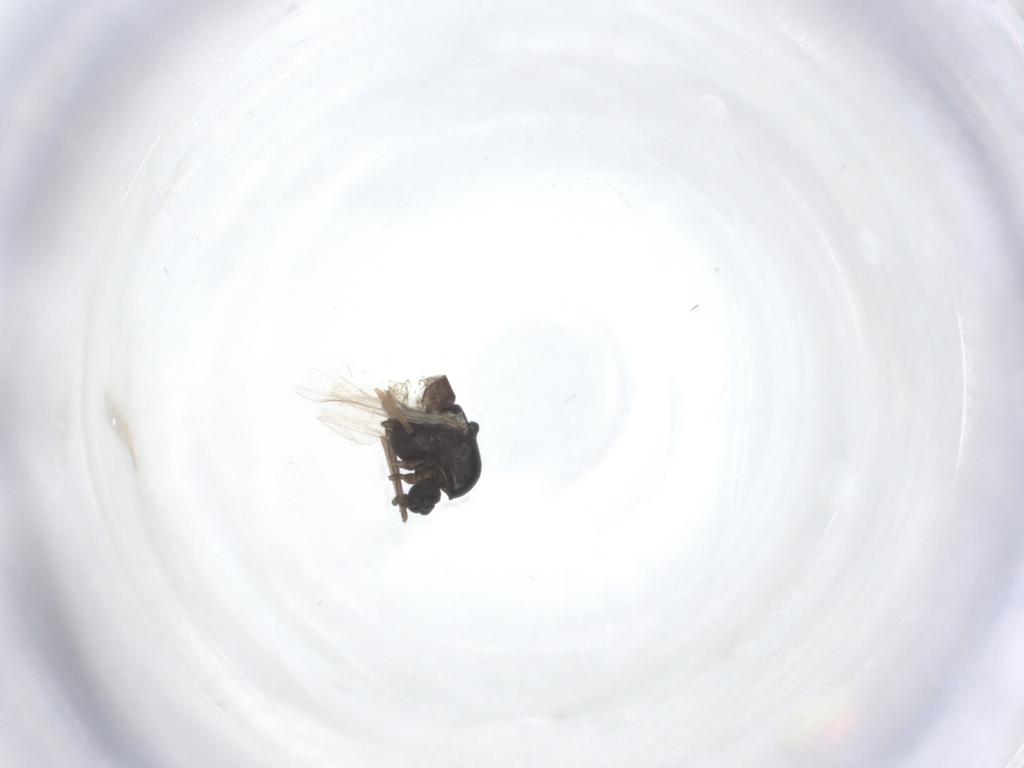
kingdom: Animalia
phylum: Arthropoda
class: Insecta
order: Diptera
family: Chironomidae
